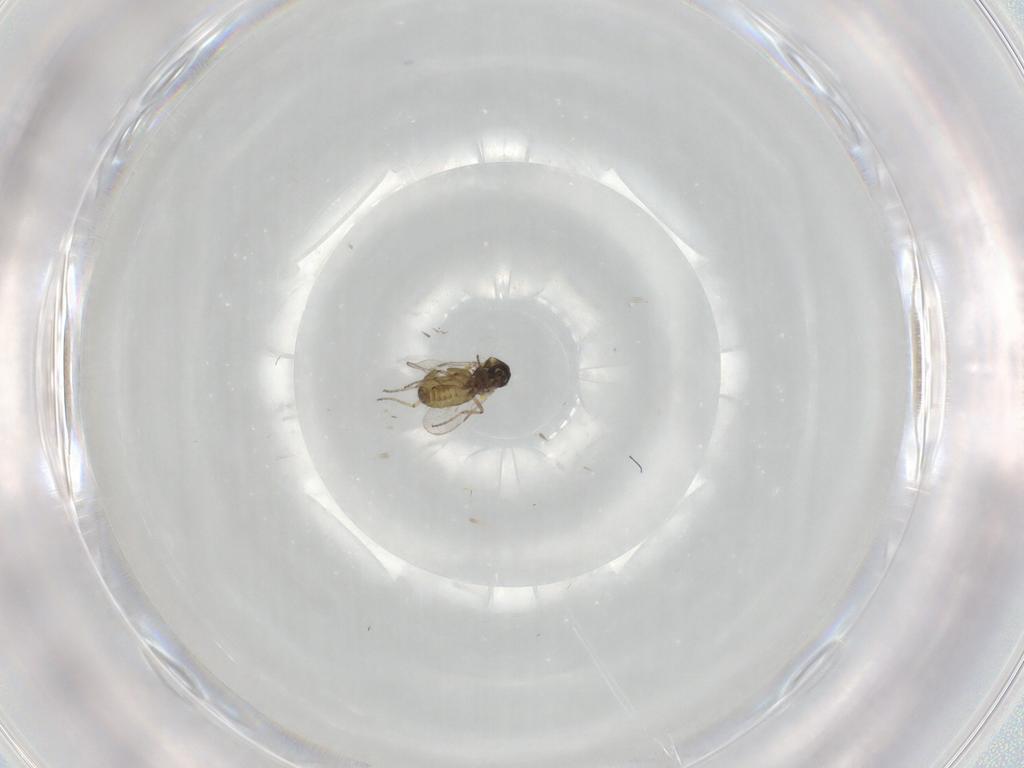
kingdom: Animalia
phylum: Arthropoda
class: Insecta
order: Diptera
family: Ceratopogonidae
